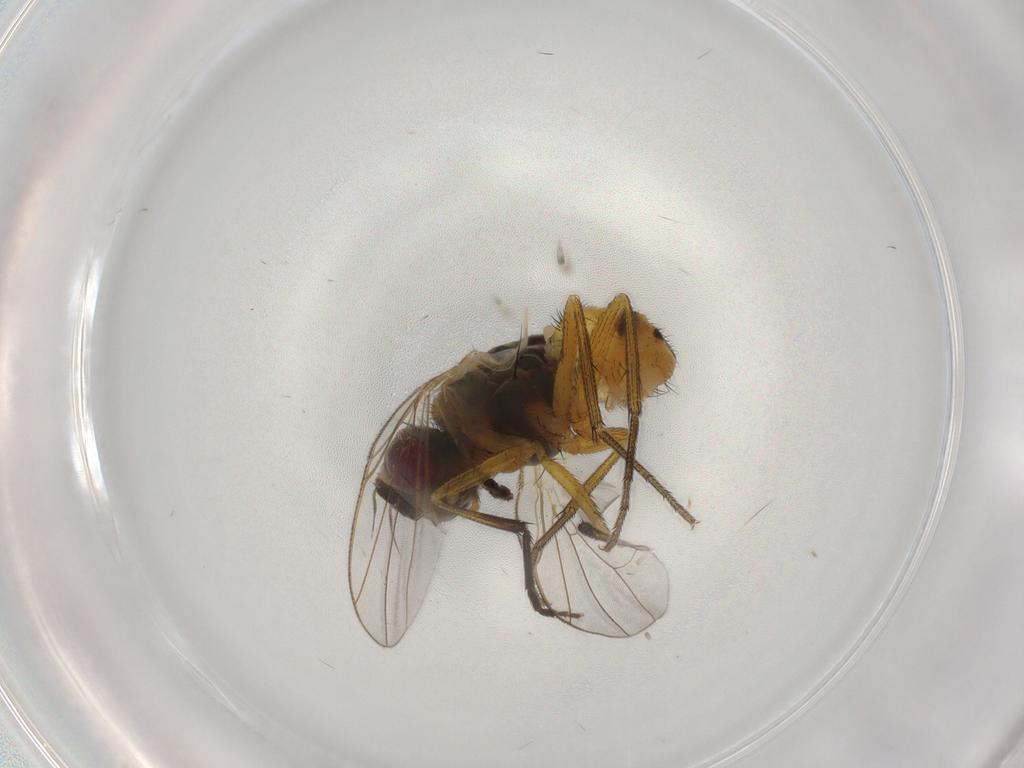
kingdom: Animalia
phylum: Arthropoda
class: Insecta
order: Diptera
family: Muscidae
